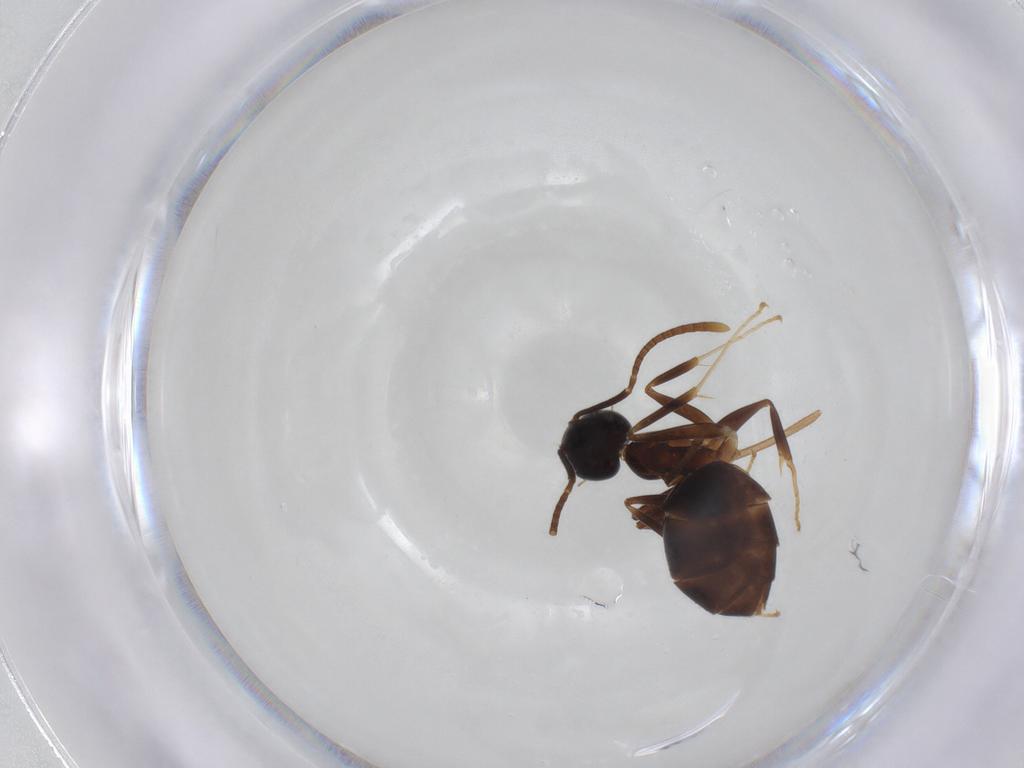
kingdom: Animalia
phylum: Arthropoda
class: Insecta
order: Hymenoptera
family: Formicidae
